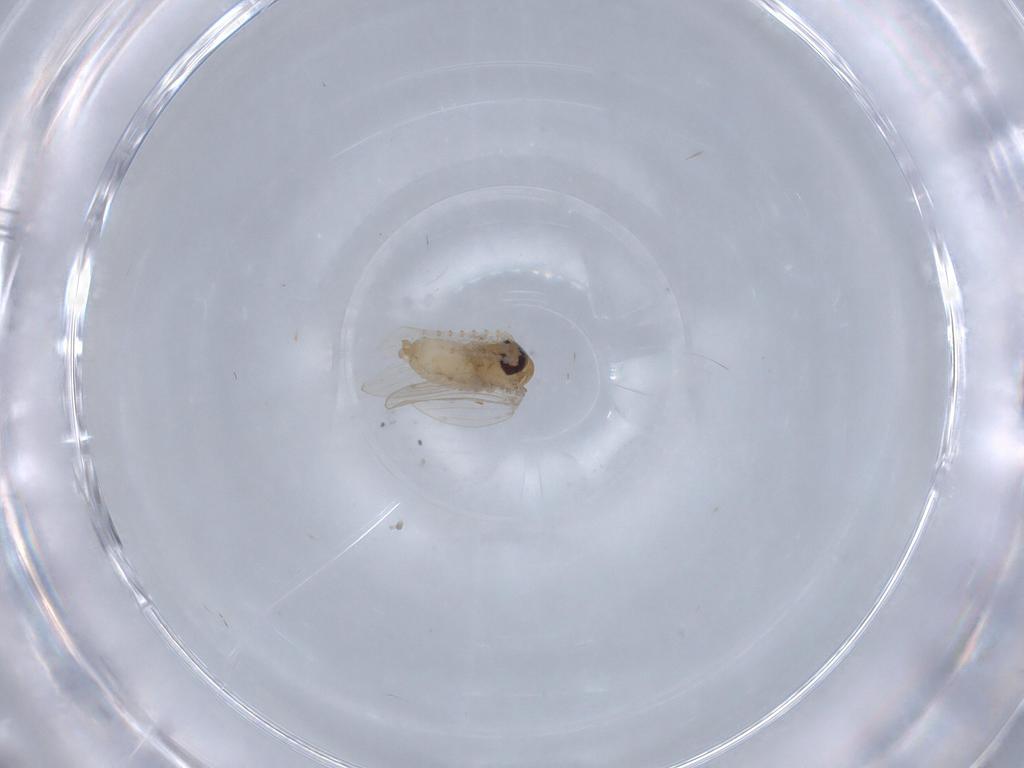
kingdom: Animalia
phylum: Arthropoda
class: Insecta
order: Diptera
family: Psychodidae
